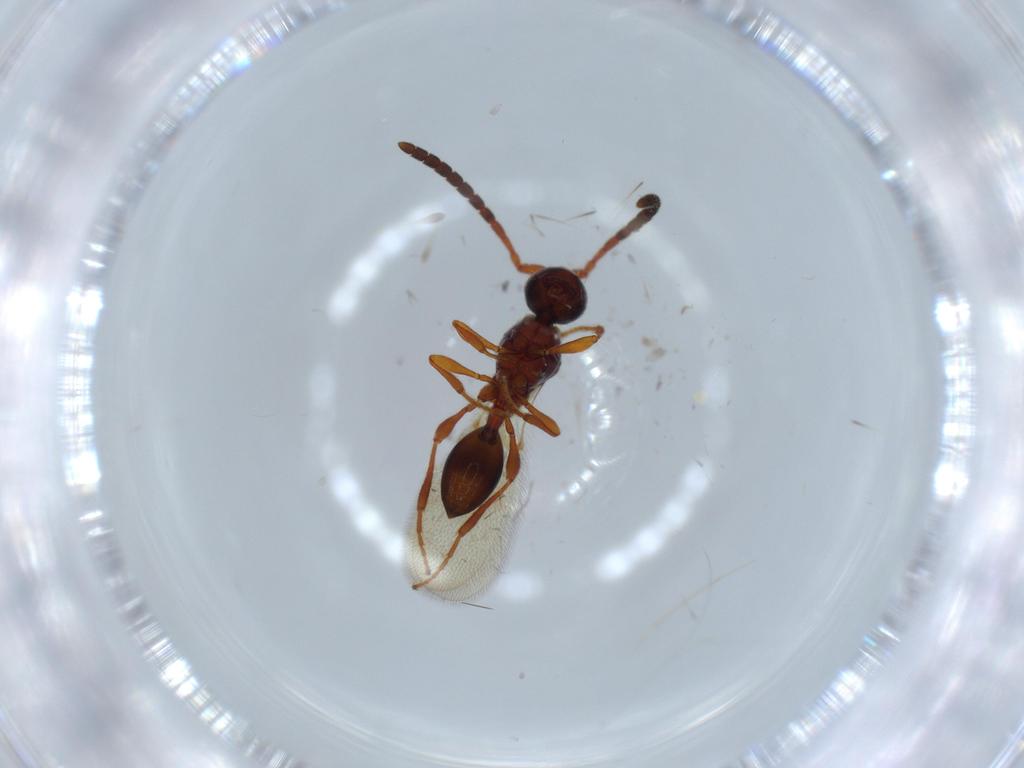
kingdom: Animalia
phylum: Arthropoda
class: Insecta
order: Hymenoptera
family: Diapriidae
